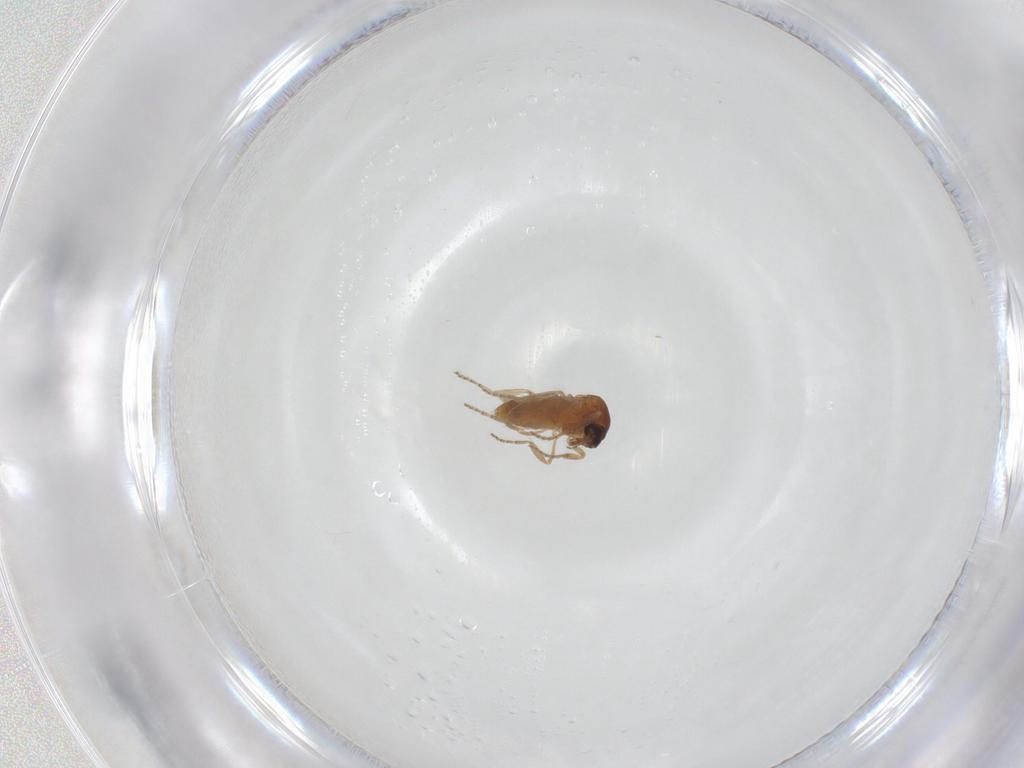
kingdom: Animalia
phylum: Arthropoda
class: Insecta
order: Diptera
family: Ceratopogonidae
